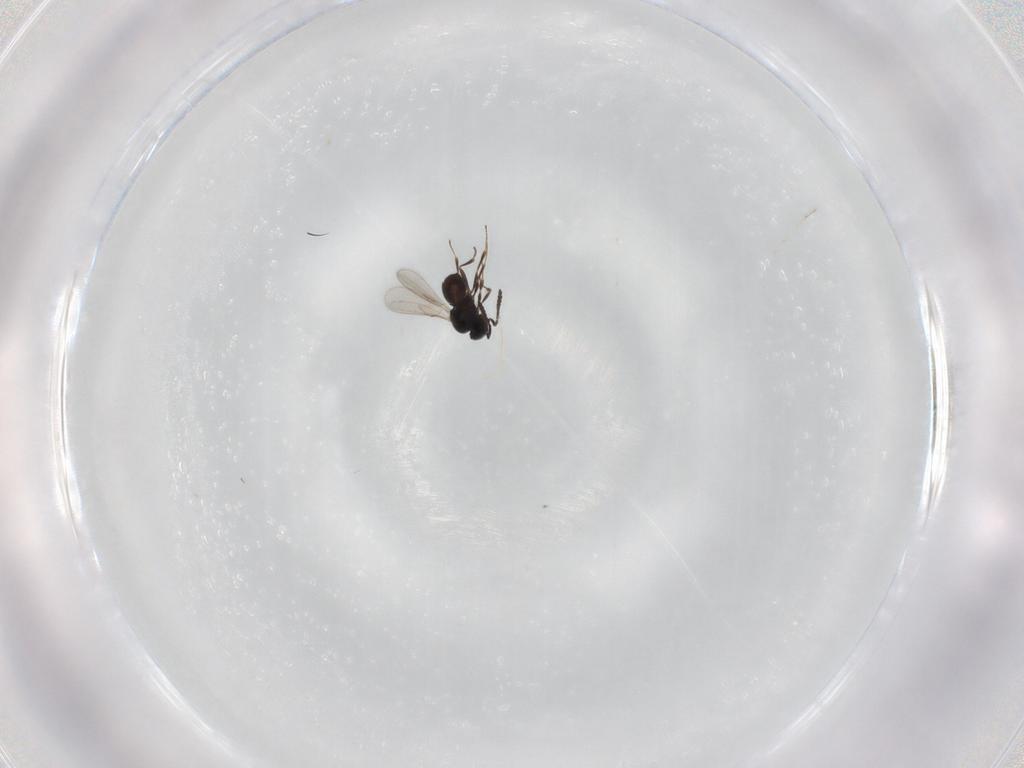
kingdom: Animalia
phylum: Arthropoda
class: Insecta
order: Hymenoptera
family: Scelionidae
